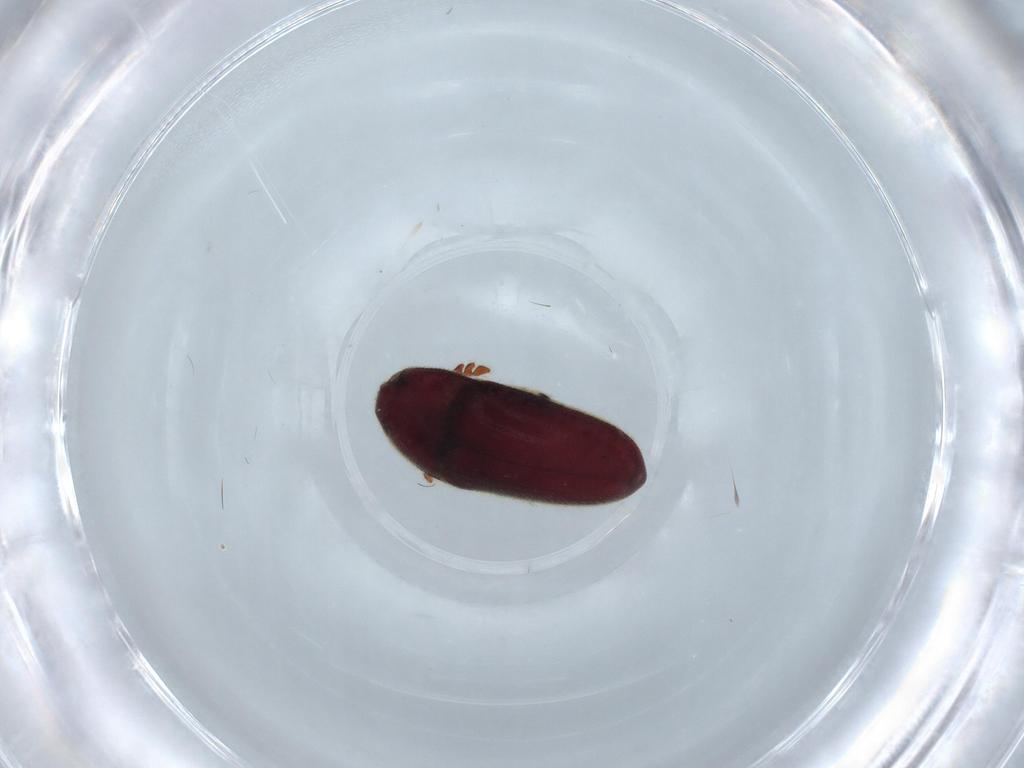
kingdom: Animalia
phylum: Arthropoda
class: Insecta
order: Coleoptera
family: Throscidae
